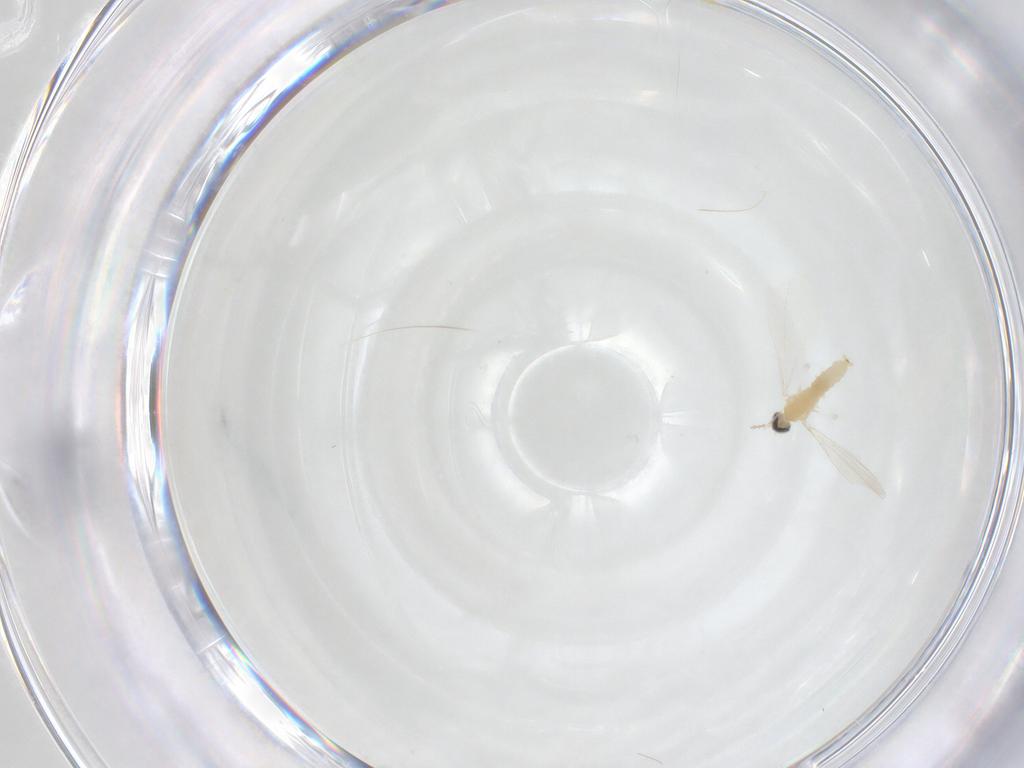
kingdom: Animalia
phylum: Arthropoda
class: Insecta
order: Diptera
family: Cecidomyiidae
